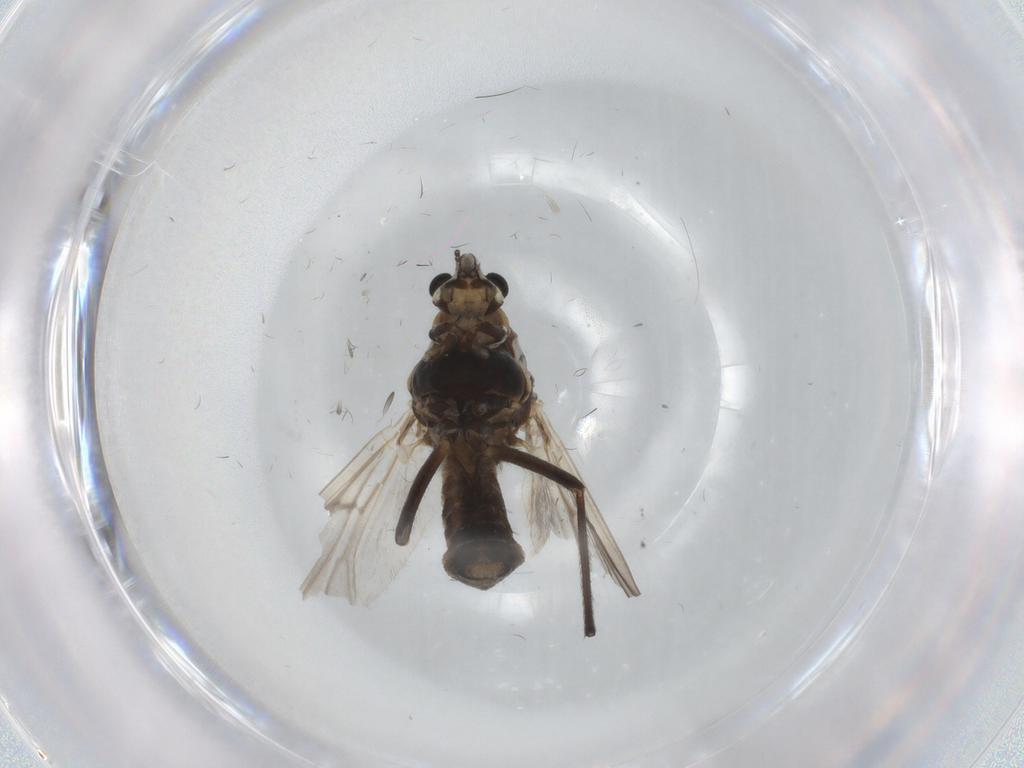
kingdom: Animalia
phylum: Arthropoda
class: Insecta
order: Diptera
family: Chironomidae
